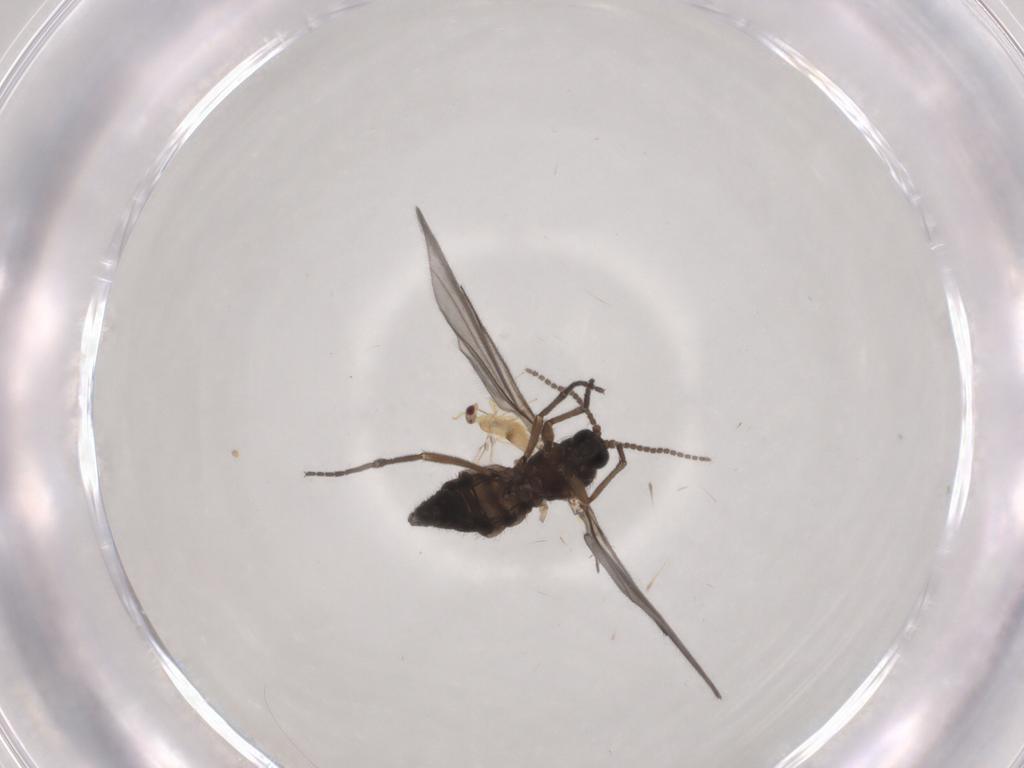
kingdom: Animalia
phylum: Arthropoda
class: Insecta
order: Diptera
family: Sciaridae
